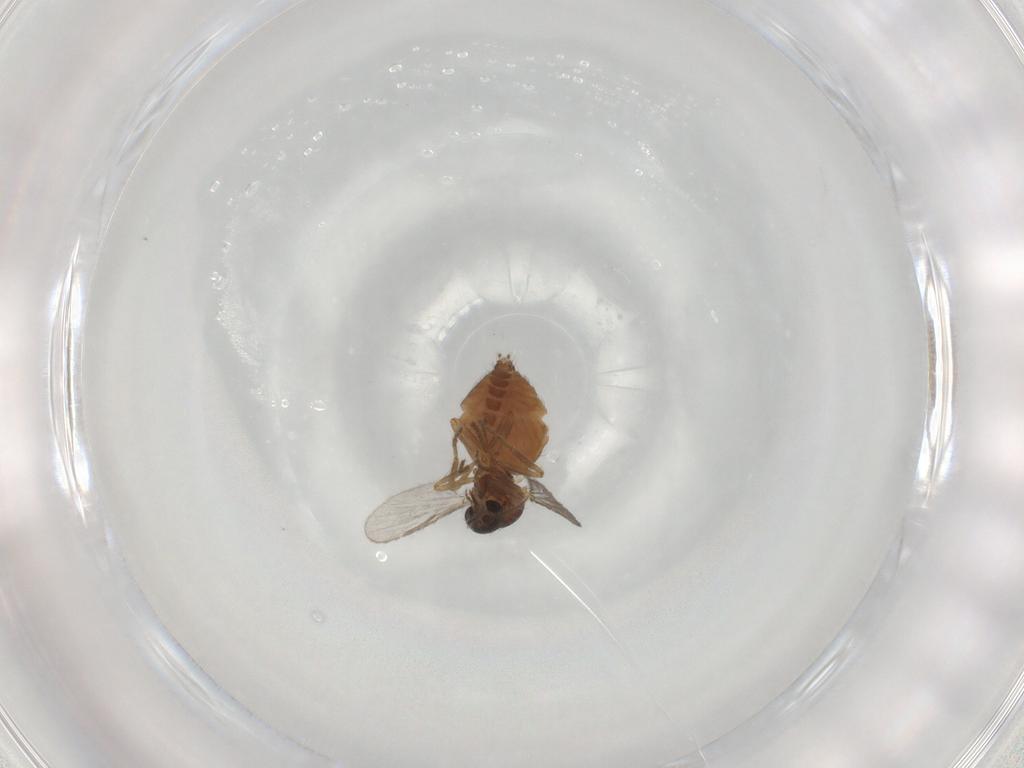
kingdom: Animalia
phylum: Arthropoda
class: Insecta
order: Diptera
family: Ceratopogonidae
